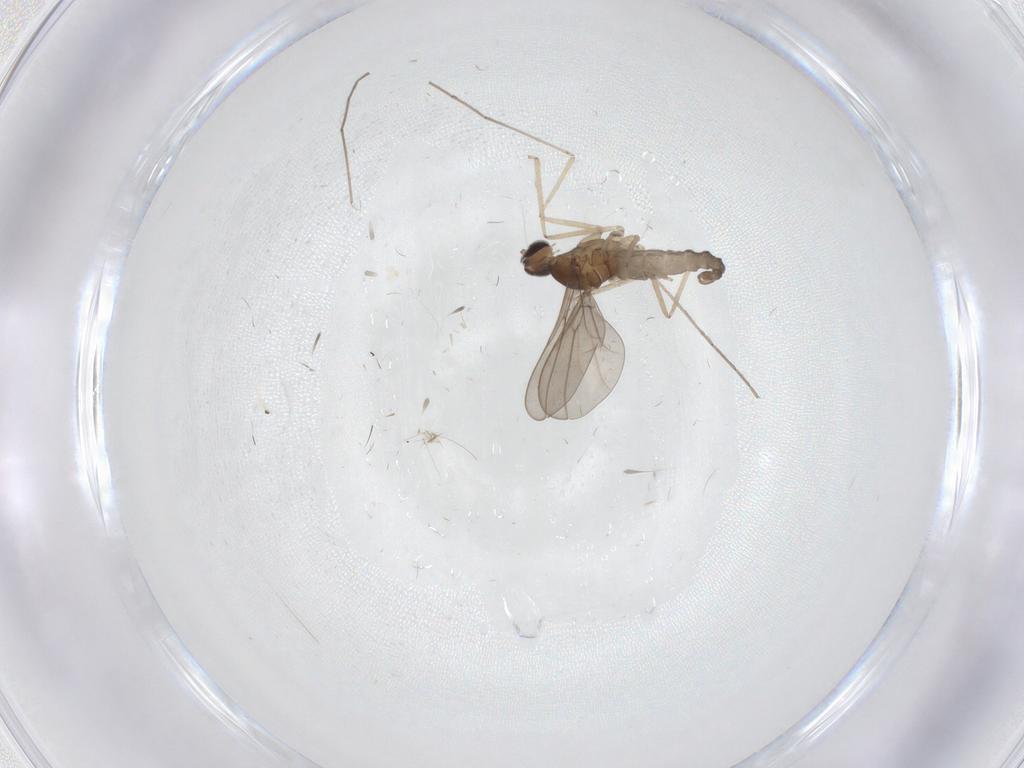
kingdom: Animalia
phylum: Arthropoda
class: Insecta
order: Diptera
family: Cecidomyiidae
